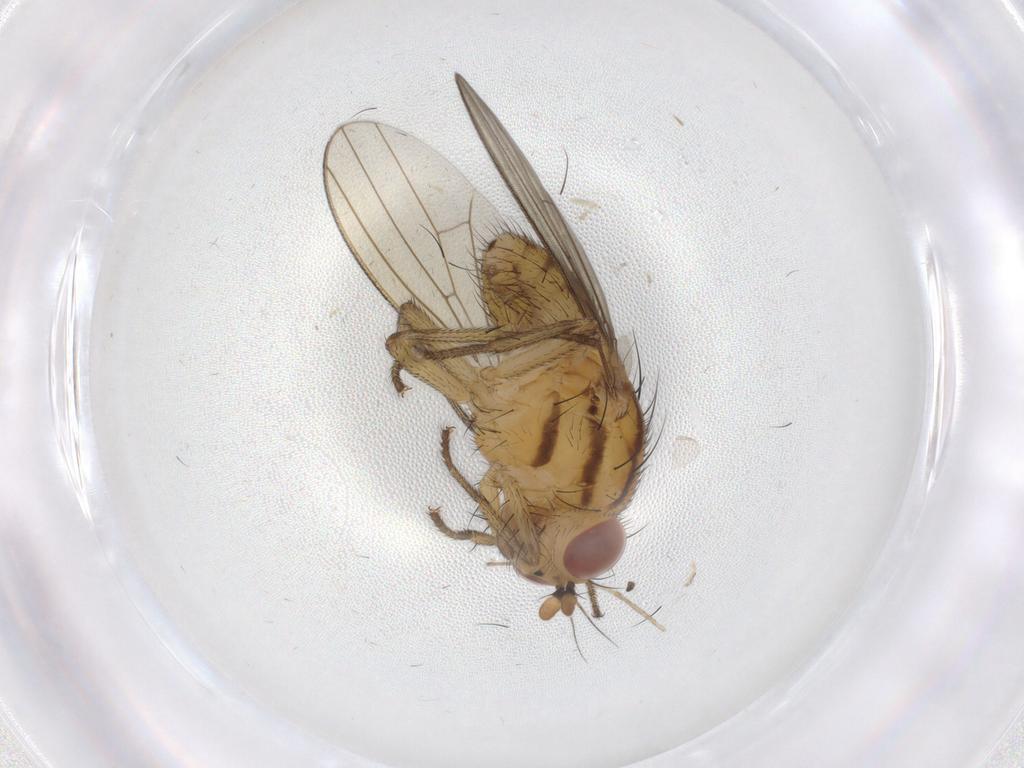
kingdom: Animalia
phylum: Arthropoda
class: Insecta
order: Diptera
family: Dolichopodidae
